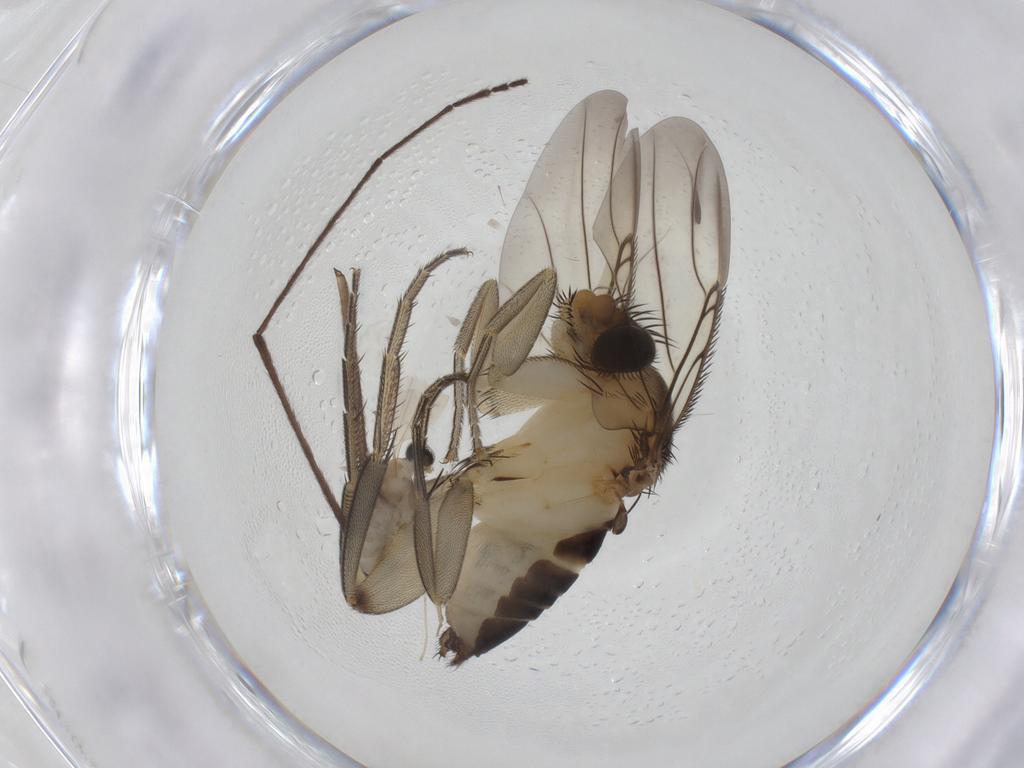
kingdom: Animalia
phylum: Arthropoda
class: Insecta
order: Diptera
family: Cecidomyiidae
